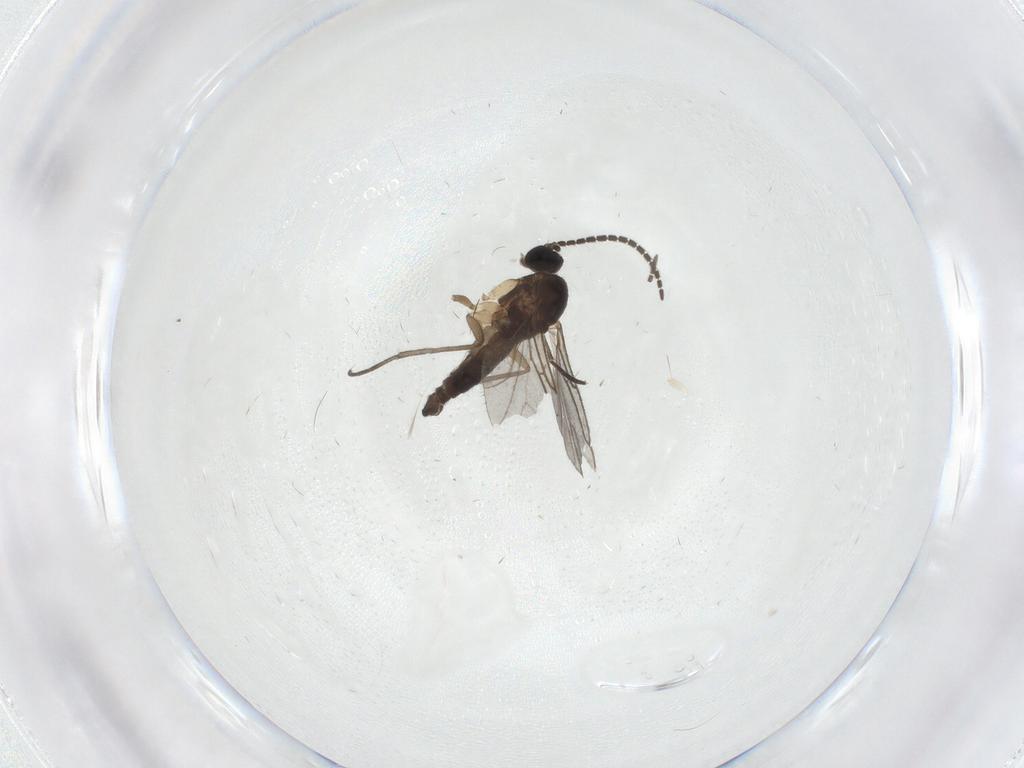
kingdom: Animalia
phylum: Arthropoda
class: Insecta
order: Diptera
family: Sciaridae
